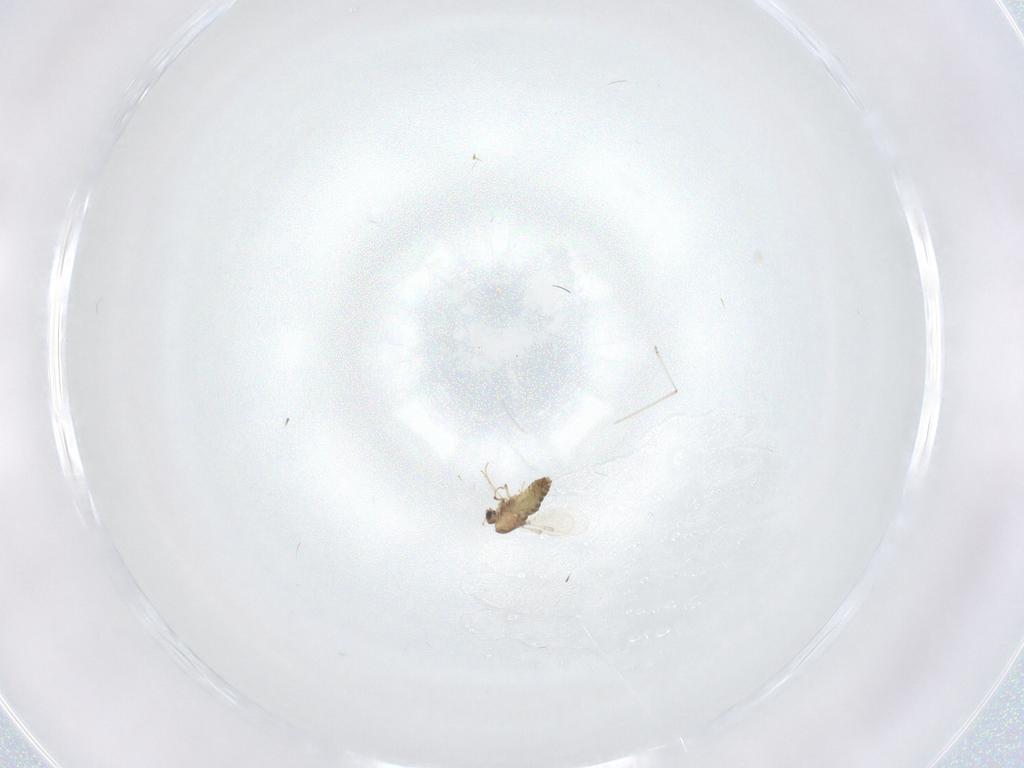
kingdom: Animalia
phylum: Arthropoda
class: Insecta
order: Diptera
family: Chironomidae
